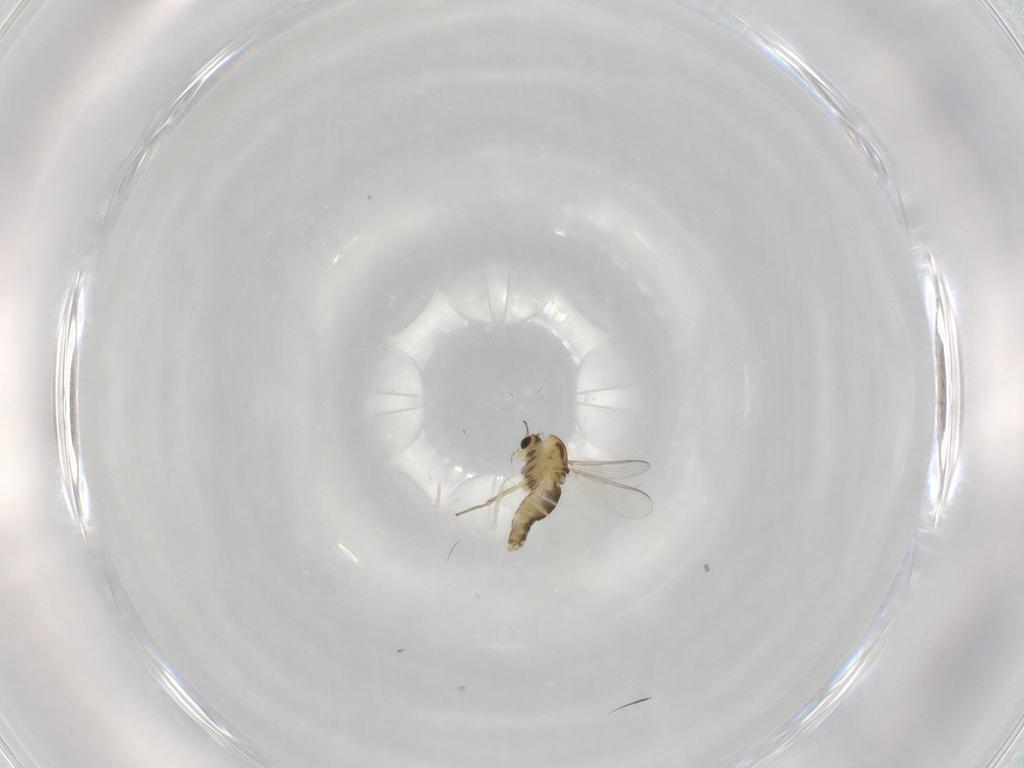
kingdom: Animalia
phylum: Arthropoda
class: Insecta
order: Diptera
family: Chironomidae
